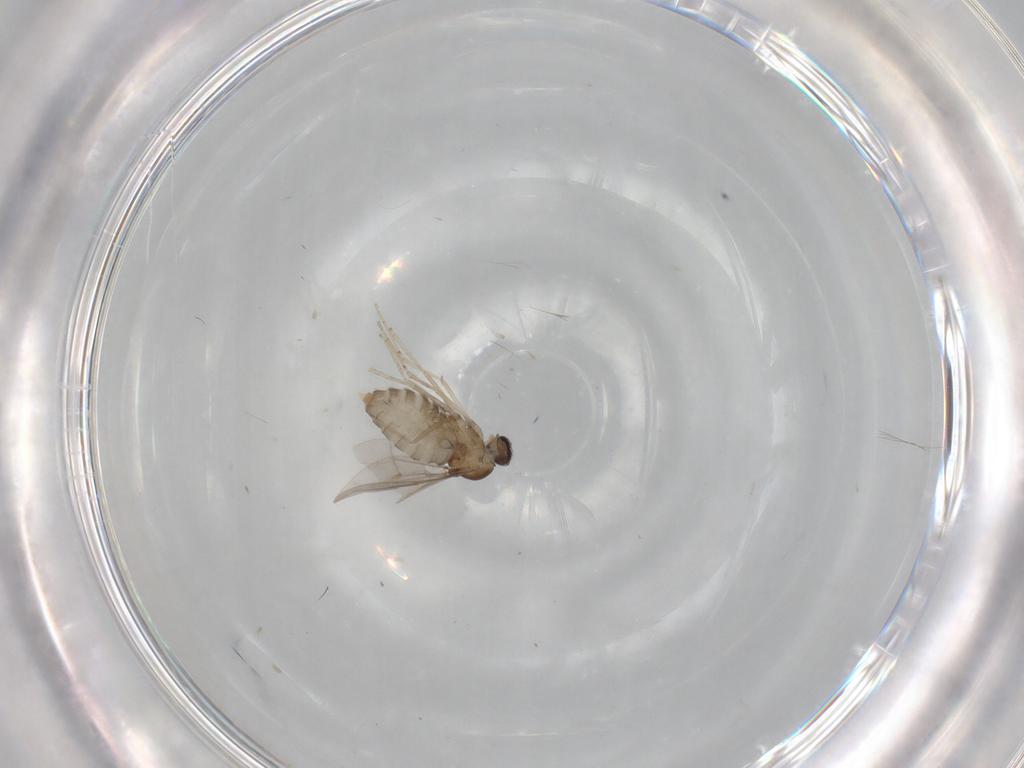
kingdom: Animalia
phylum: Arthropoda
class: Insecta
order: Diptera
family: Cecidomyiidae
